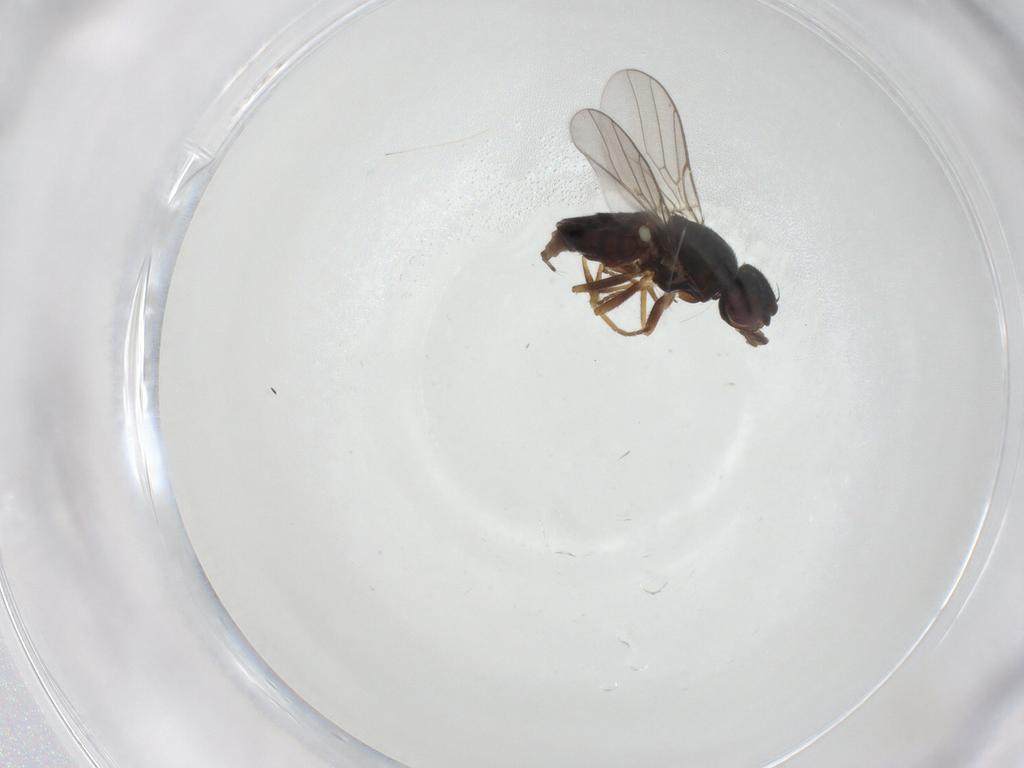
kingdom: Animalia
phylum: Arthropoda
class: Insecta
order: Diptera
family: Chloropidae
